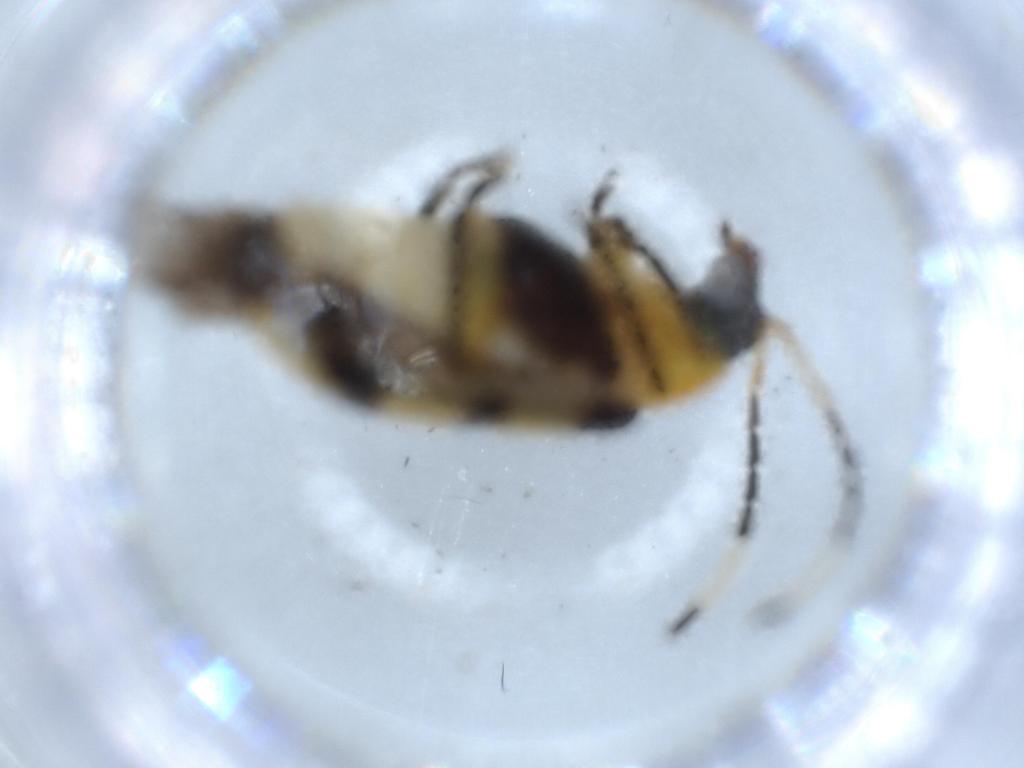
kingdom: Animalia
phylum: Arthropoda
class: Insecta
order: Coleoptera
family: Chrysomelidae
